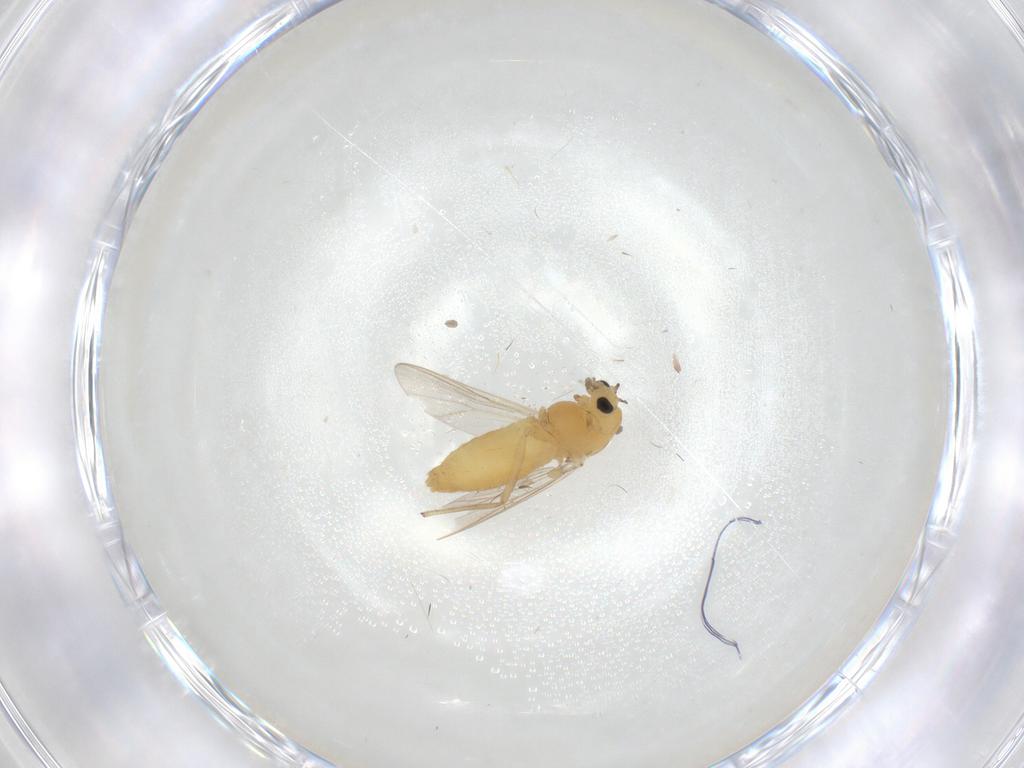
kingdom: Animalia
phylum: Arthropoda
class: Insecta
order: Diptera
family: Chironomidae
